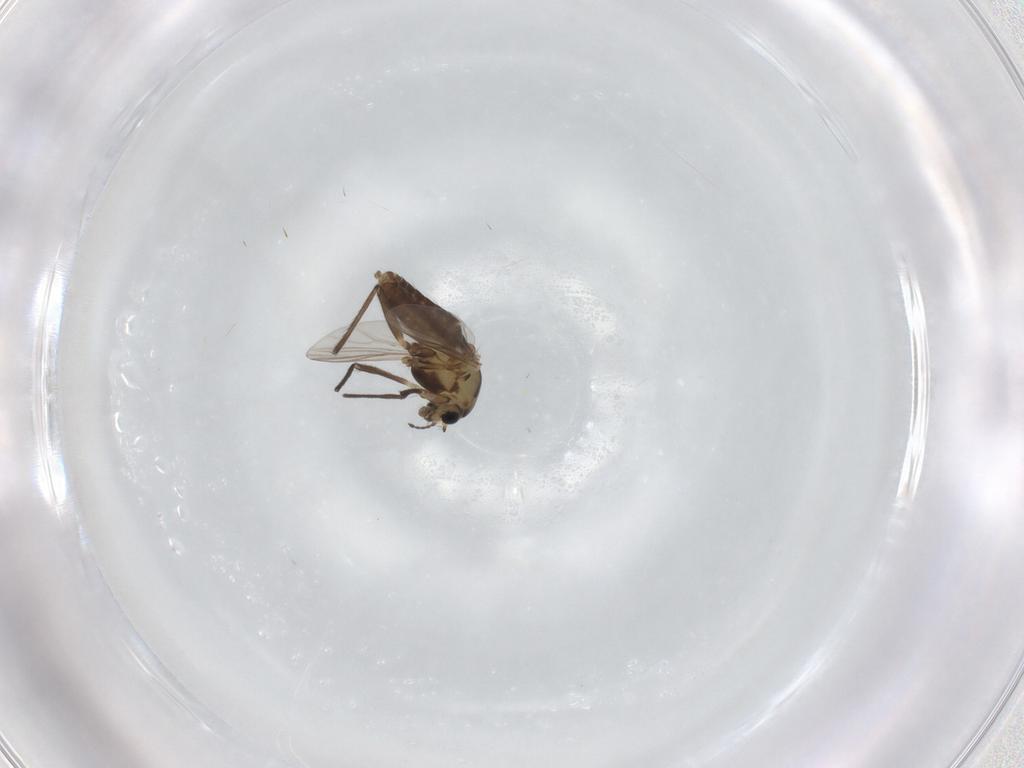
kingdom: Animalia
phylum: Arthropoda
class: Insecta
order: Diptera
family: Chironomidae
